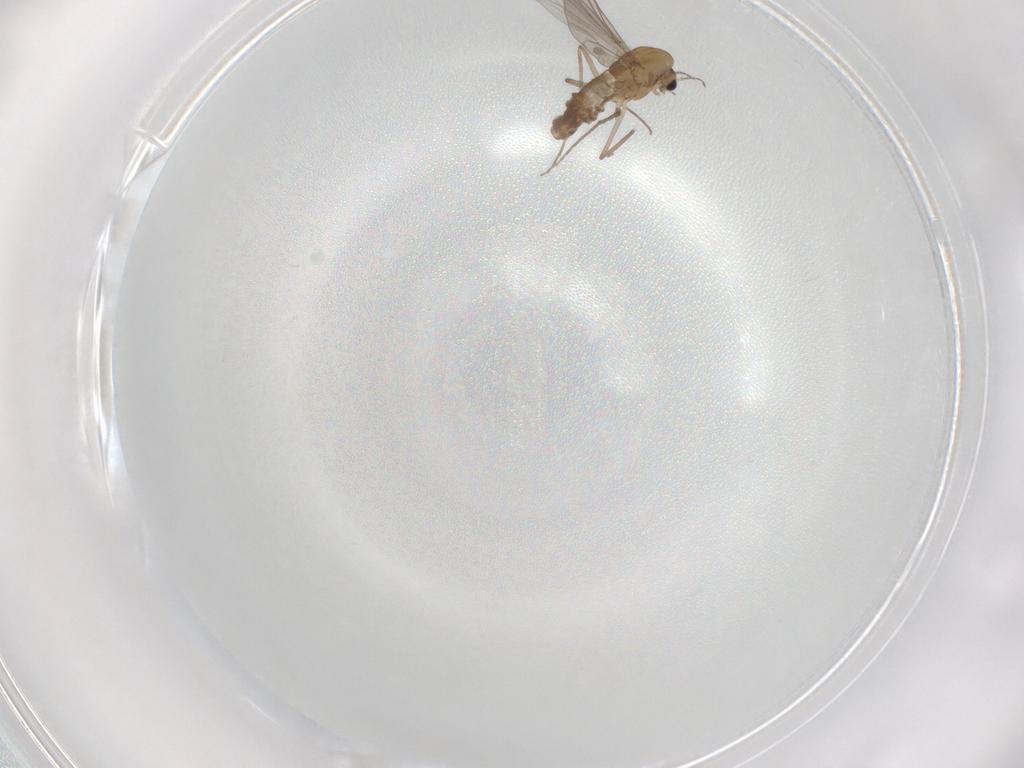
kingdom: Animalia
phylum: Arthropoda
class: Insecta
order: Diptera
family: Chironomidae
